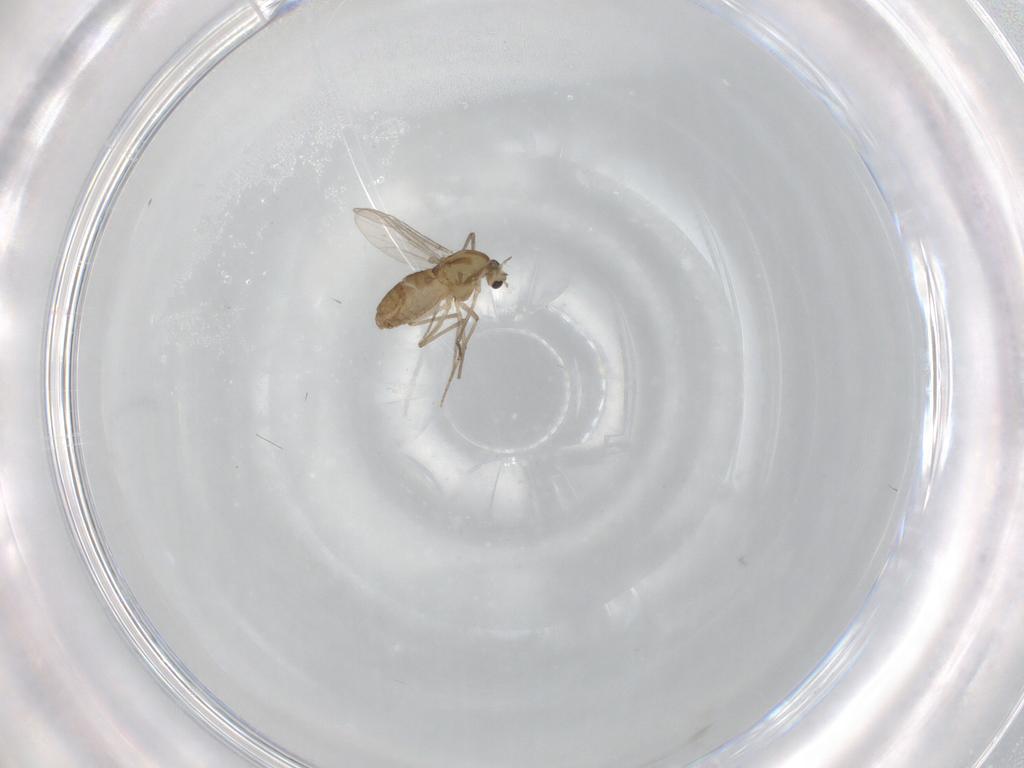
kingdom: Animalia
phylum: Arthropoda
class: Insecta
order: Diptera
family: Chironomidae
